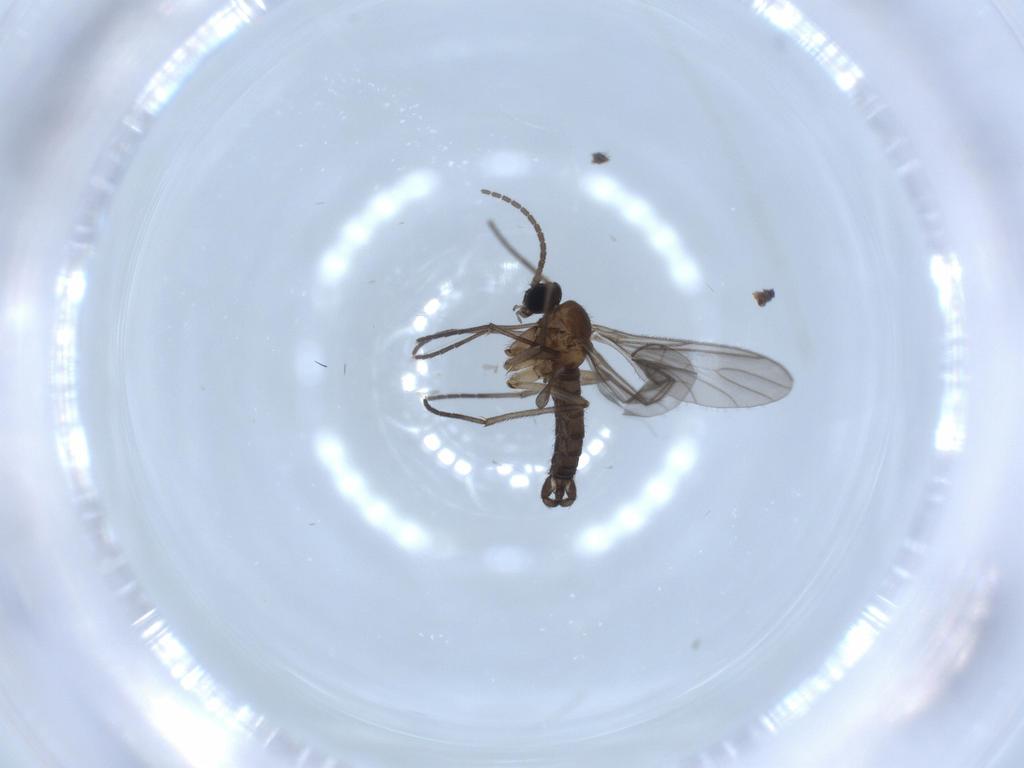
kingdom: Animalia
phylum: Arthropoda
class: Insecta
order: Diptera
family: Sciaridae
